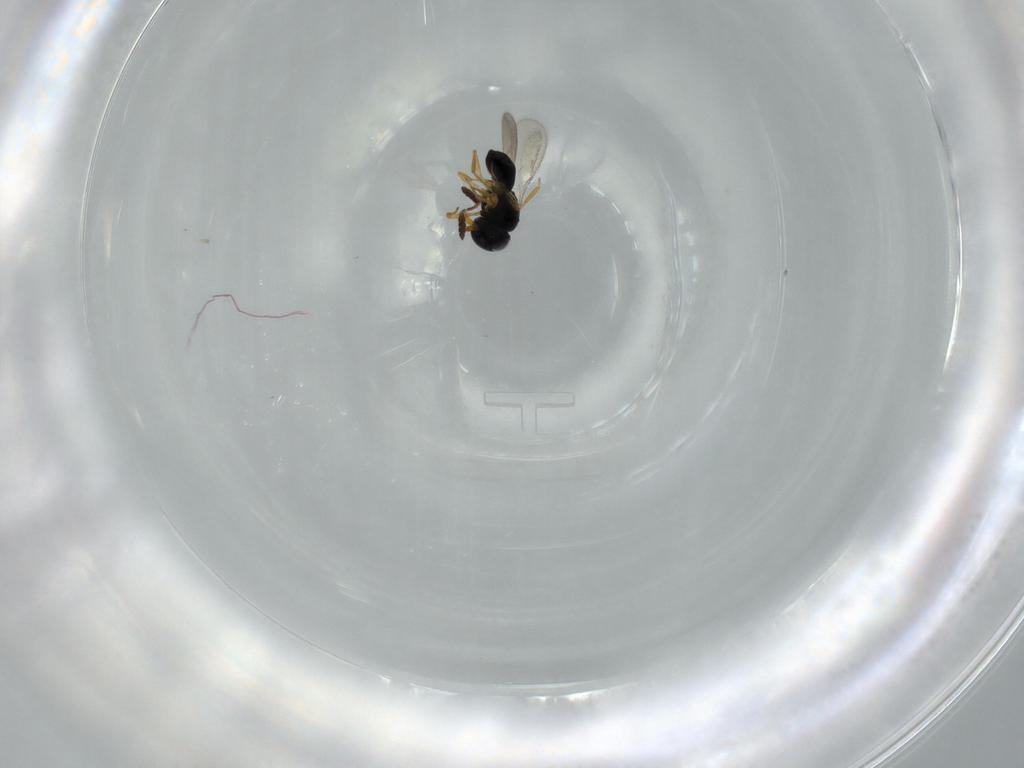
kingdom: Animalia
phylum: Arthropoda
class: Insecta
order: Hymenoptera
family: Scelionidae
